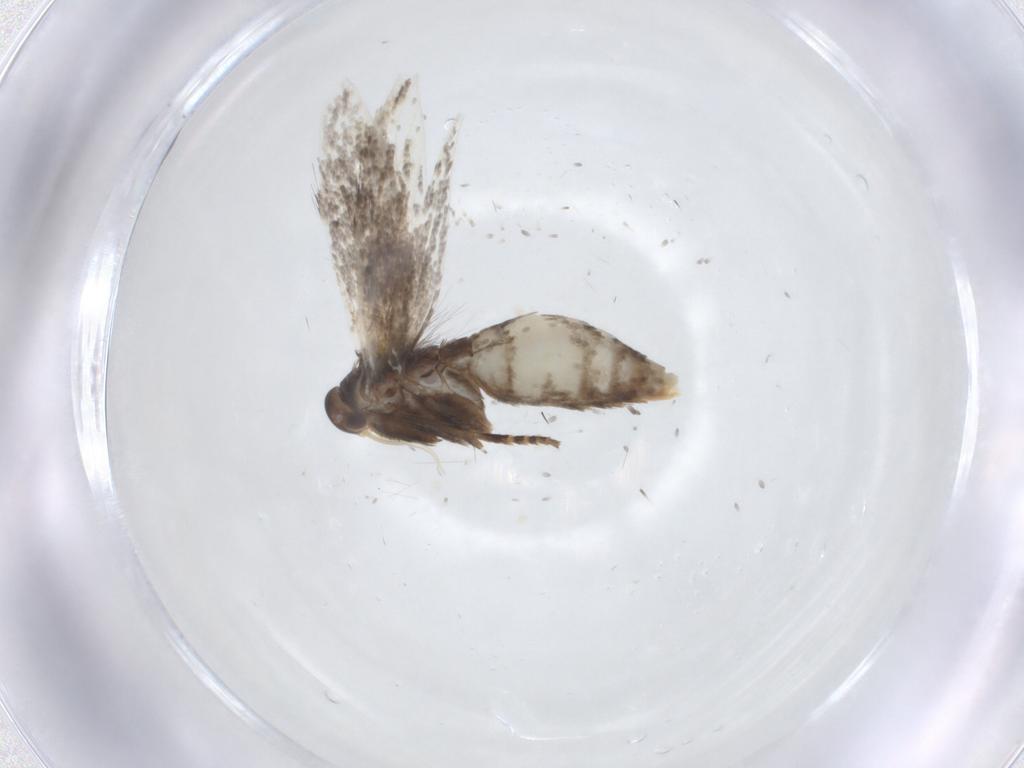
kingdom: Animalia
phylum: Arthropoda
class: Insecta
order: Lepidoptera
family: Elachistidae
